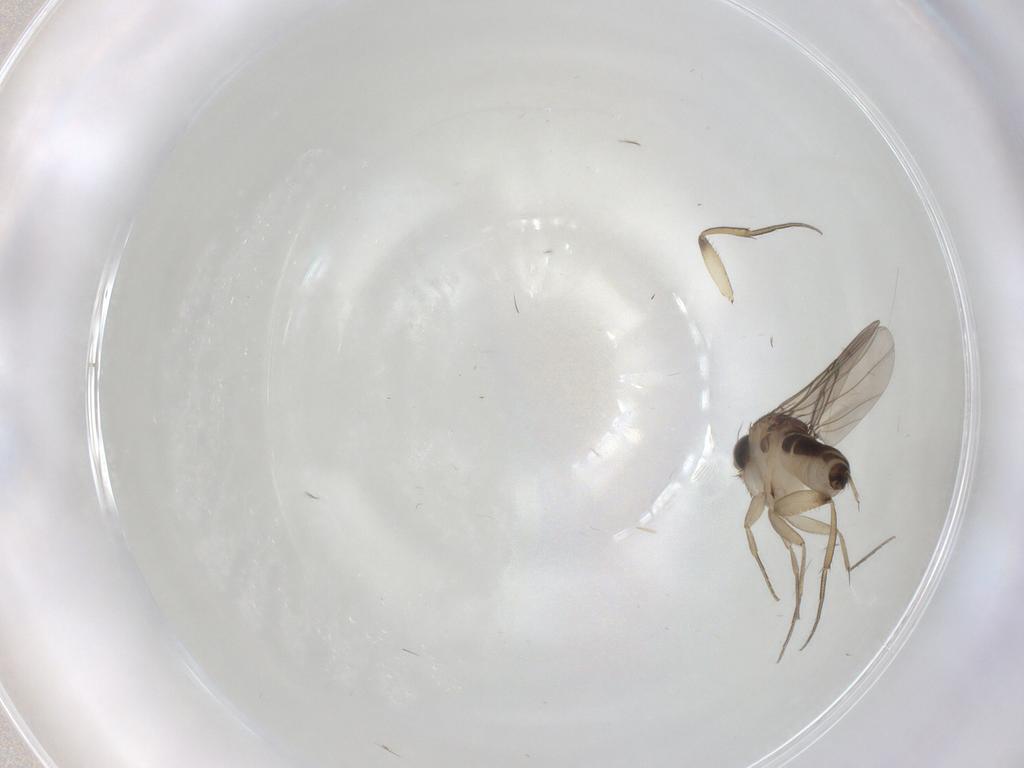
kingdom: Animalia
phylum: Arthropoda
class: Insecta
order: Diptera
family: Phoridae
